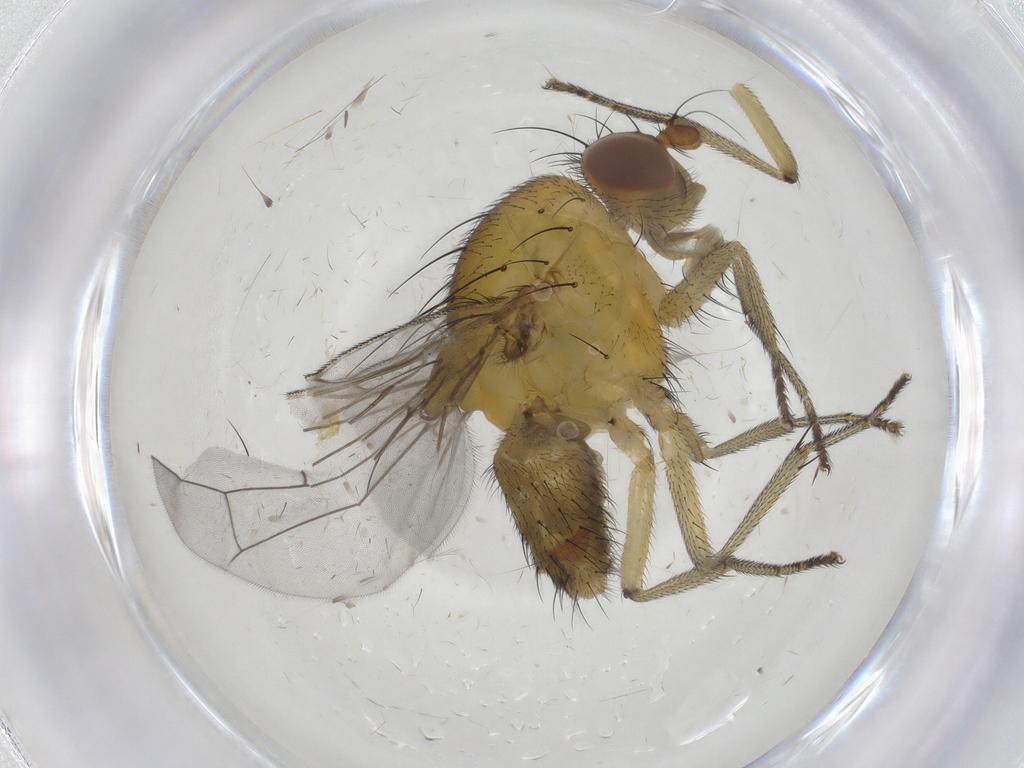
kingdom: Animalia
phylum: Arthropoda
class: Insecta
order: Diptera
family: Lauxaniidae
